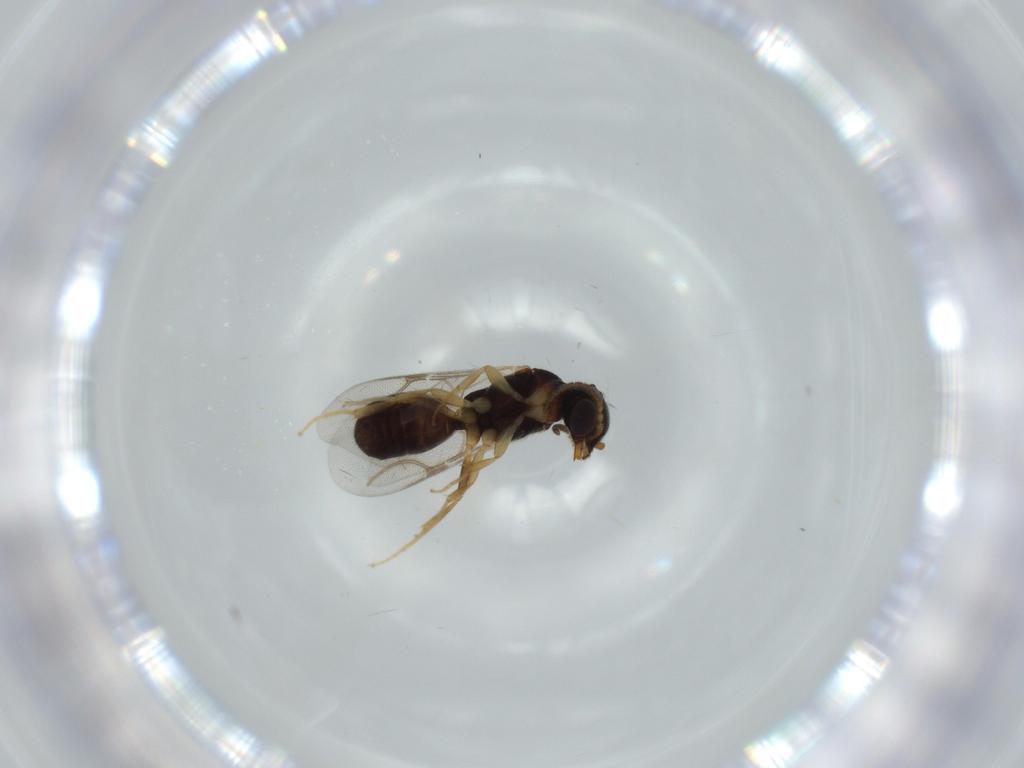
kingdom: Animalia
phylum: Arthropoda
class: Insecta
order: Hymenoptera
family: Bethylidae
